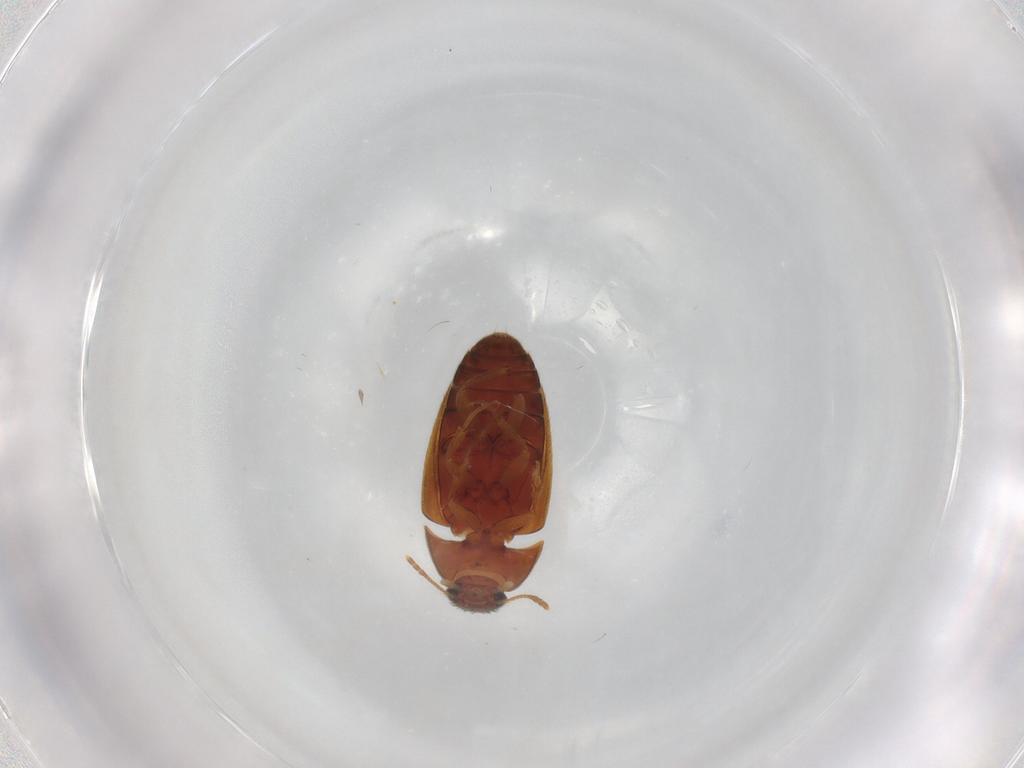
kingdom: Animalia
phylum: Arthropoda
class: Insecta
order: Coleoptera
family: Mycetophagidae
